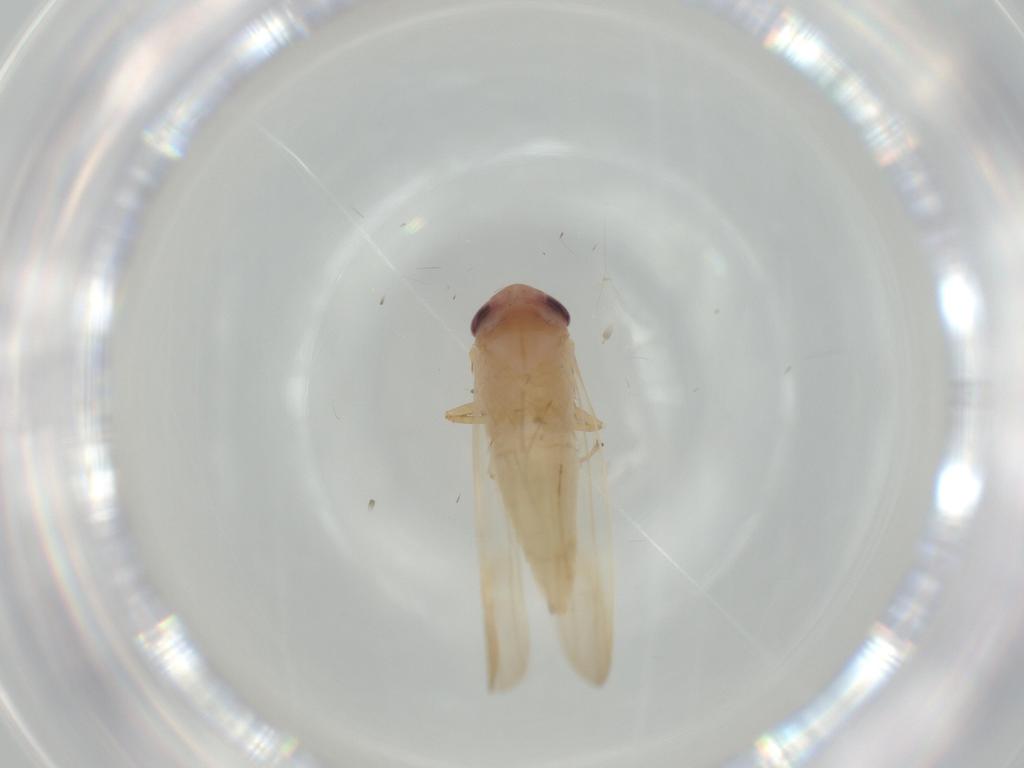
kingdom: Animalia
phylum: Arthropoda
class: Insecta
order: Hemiptera
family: Cicadellidae
